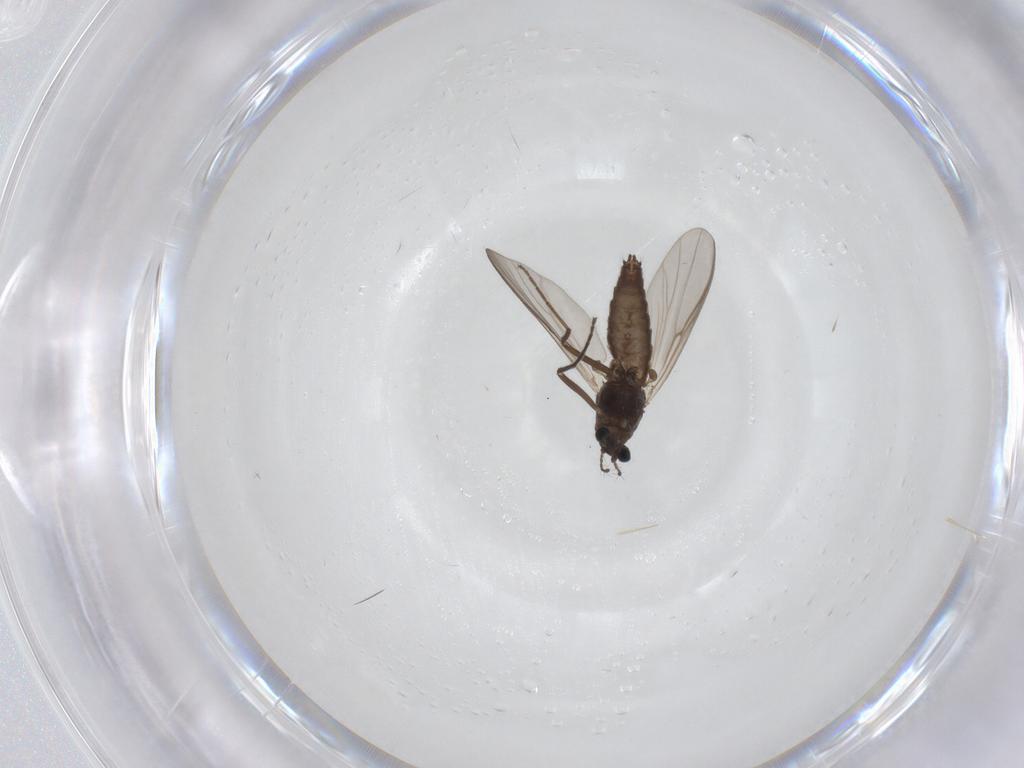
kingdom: Animalia
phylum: Arthropoda
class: Insecta
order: Diptera
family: Chironomidae
